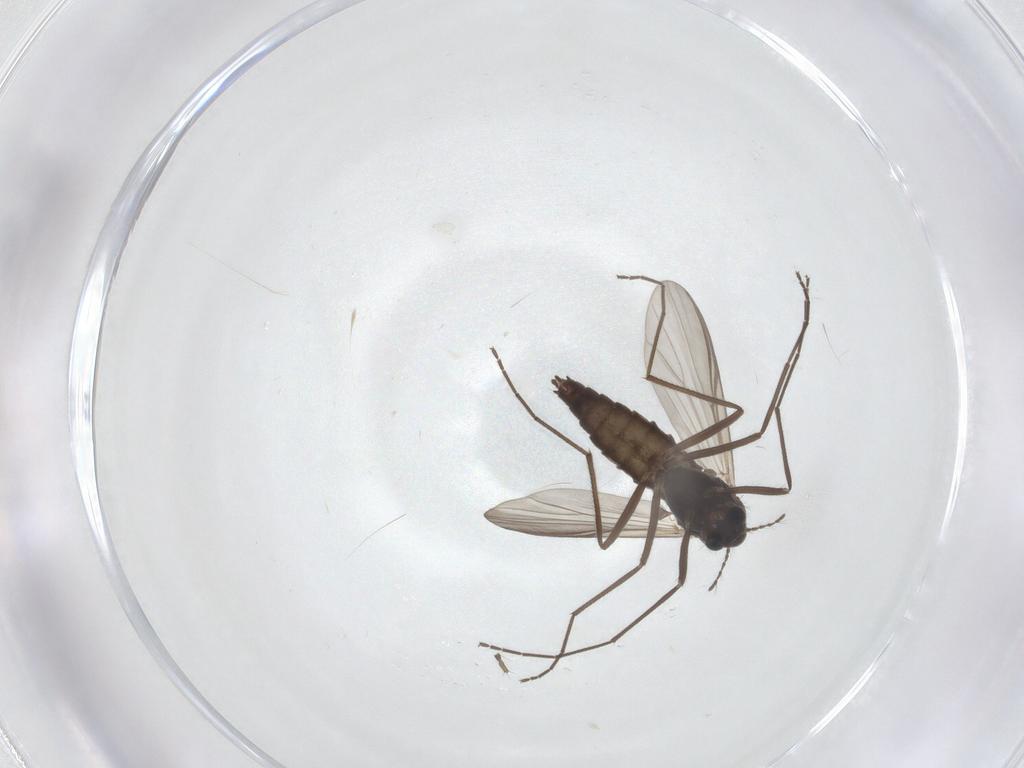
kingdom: Animalia
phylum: Arthropoda
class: Insecta
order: Diptera
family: Chironomidae
